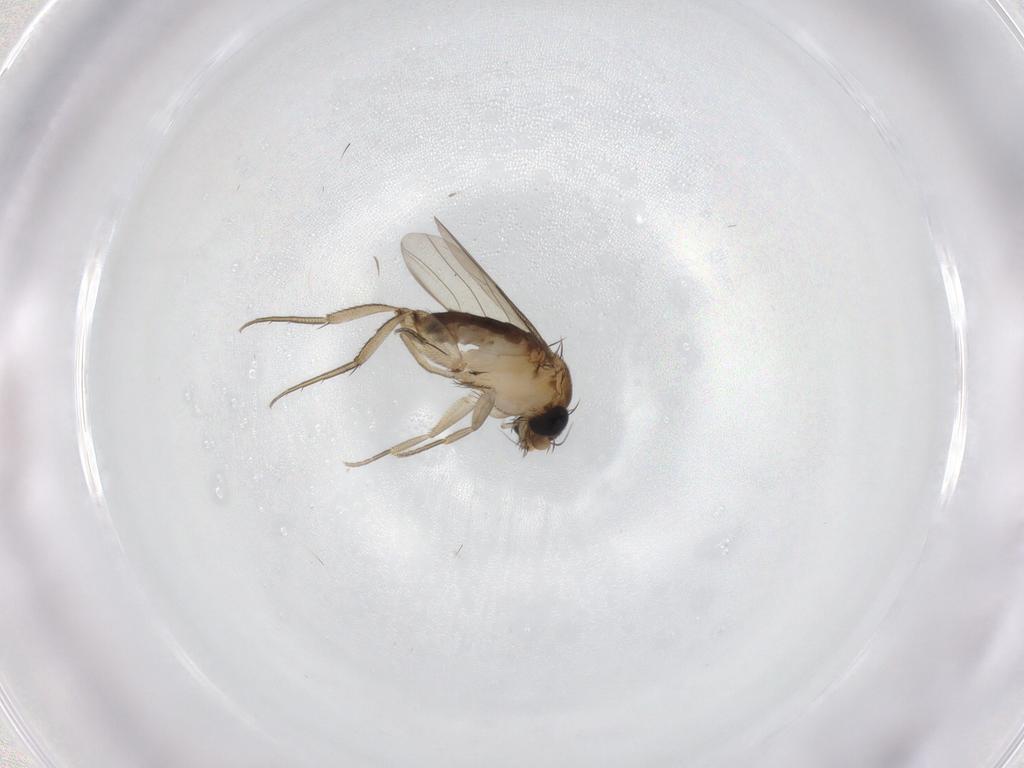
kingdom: Animalia
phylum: Arthropoda
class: Insecta
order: Diptera
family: Phoridae
